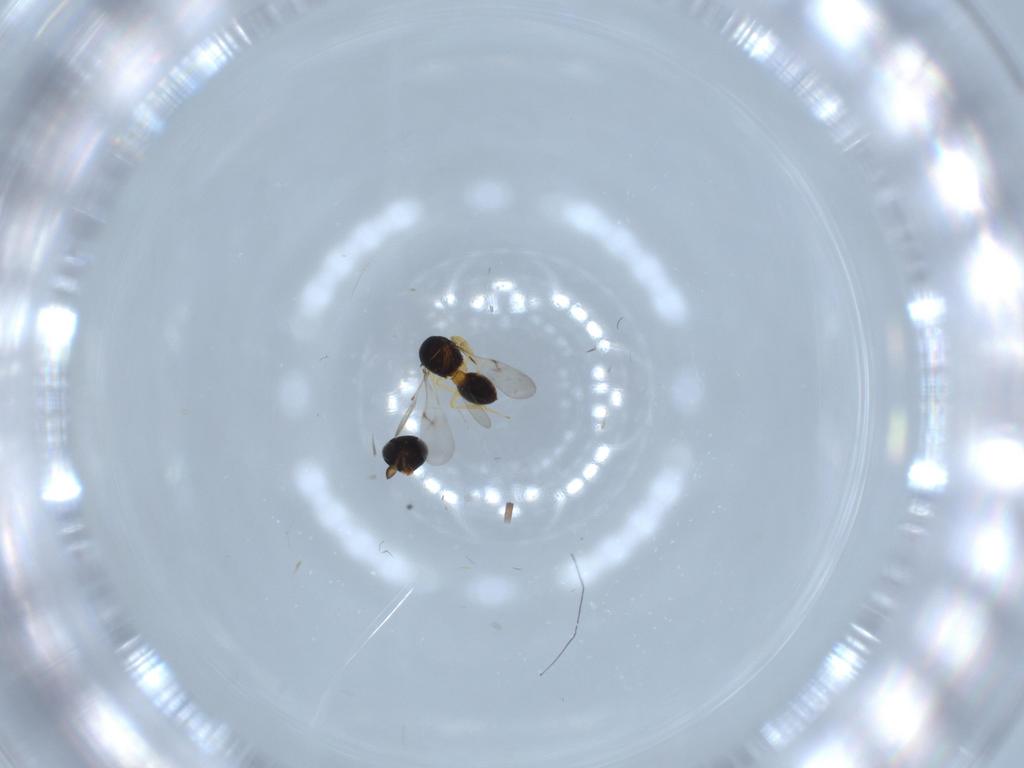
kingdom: Animalia
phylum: Arthropoda
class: Insecta
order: Hymenoptera
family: Scelionidae
